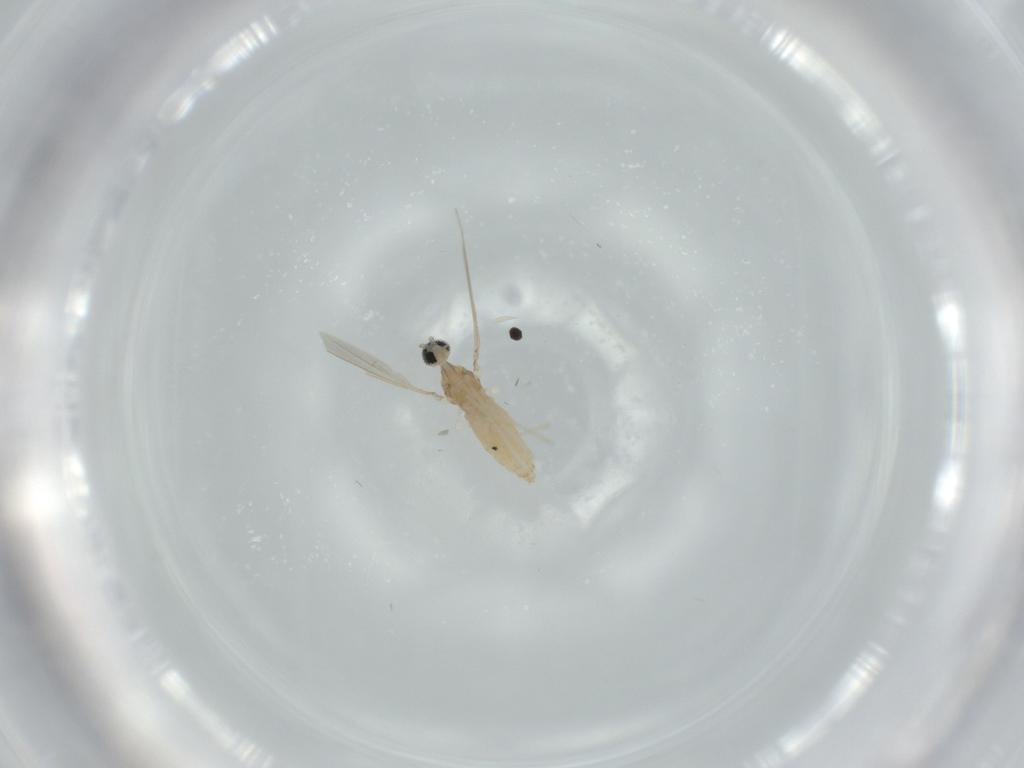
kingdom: Animalia
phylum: Arthropoda
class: Insecta
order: Diptera
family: Cecidomyiidae
